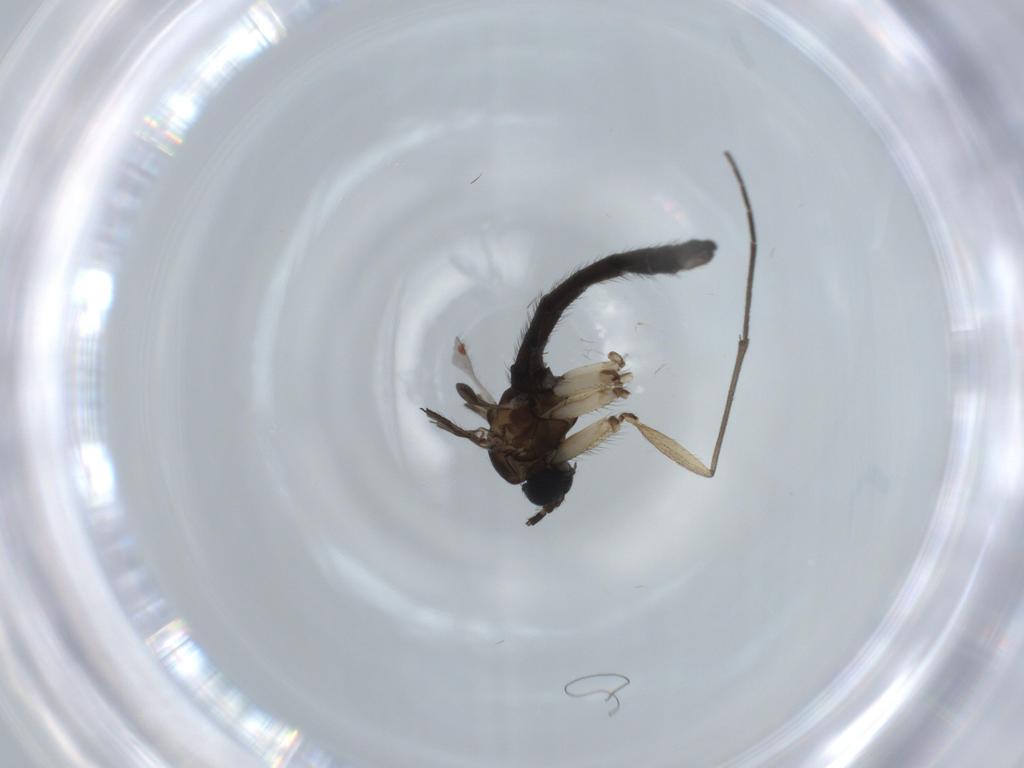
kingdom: Animalia
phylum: Arthropoda
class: Insecta
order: Diptera
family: Sciaridae
